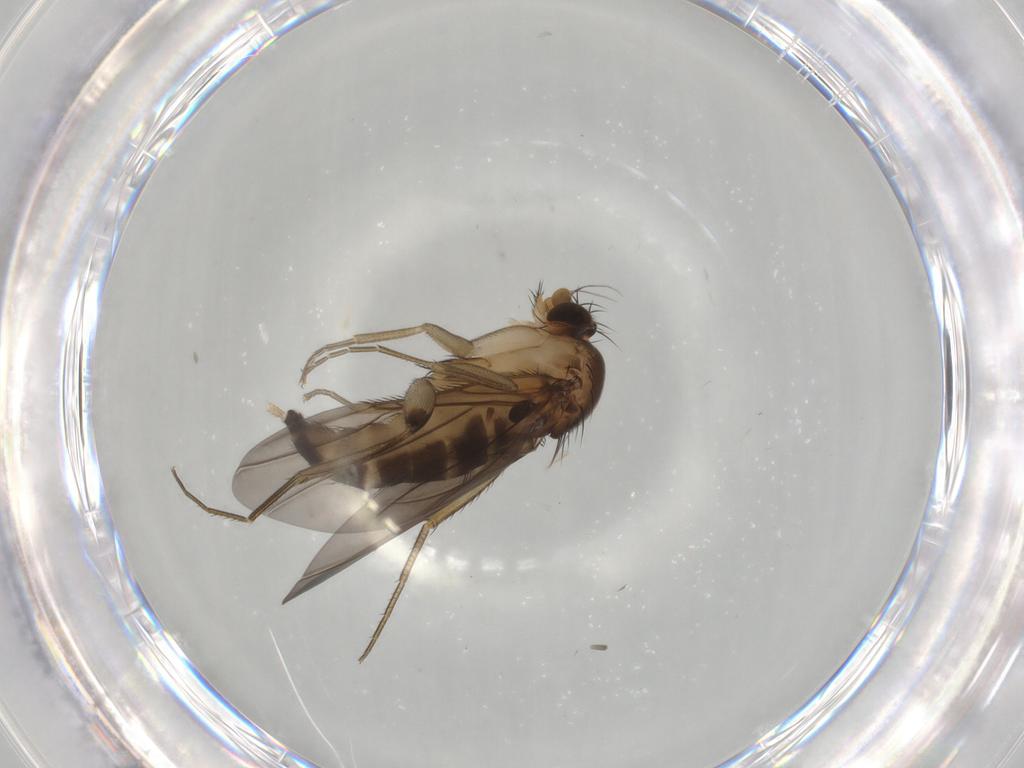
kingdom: Animalia
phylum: Arthropoda
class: Insecta
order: Diptera
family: Phoridae
